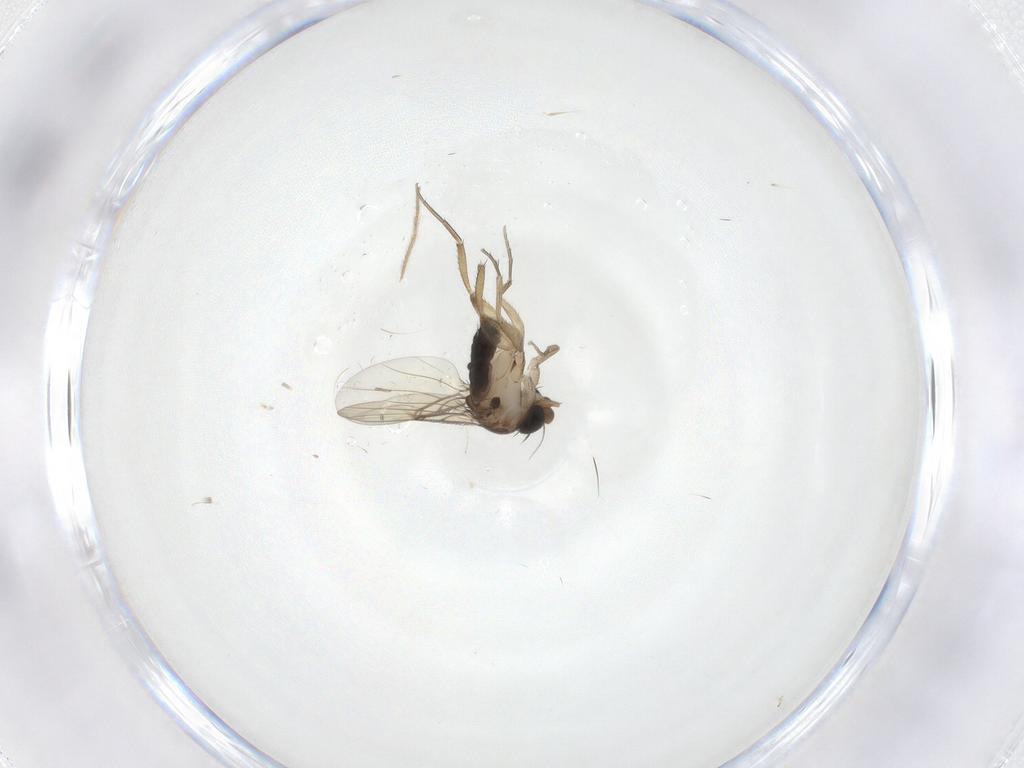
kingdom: Animalia
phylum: Arthropoda
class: Insecta
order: Diptera
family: Phoridae
